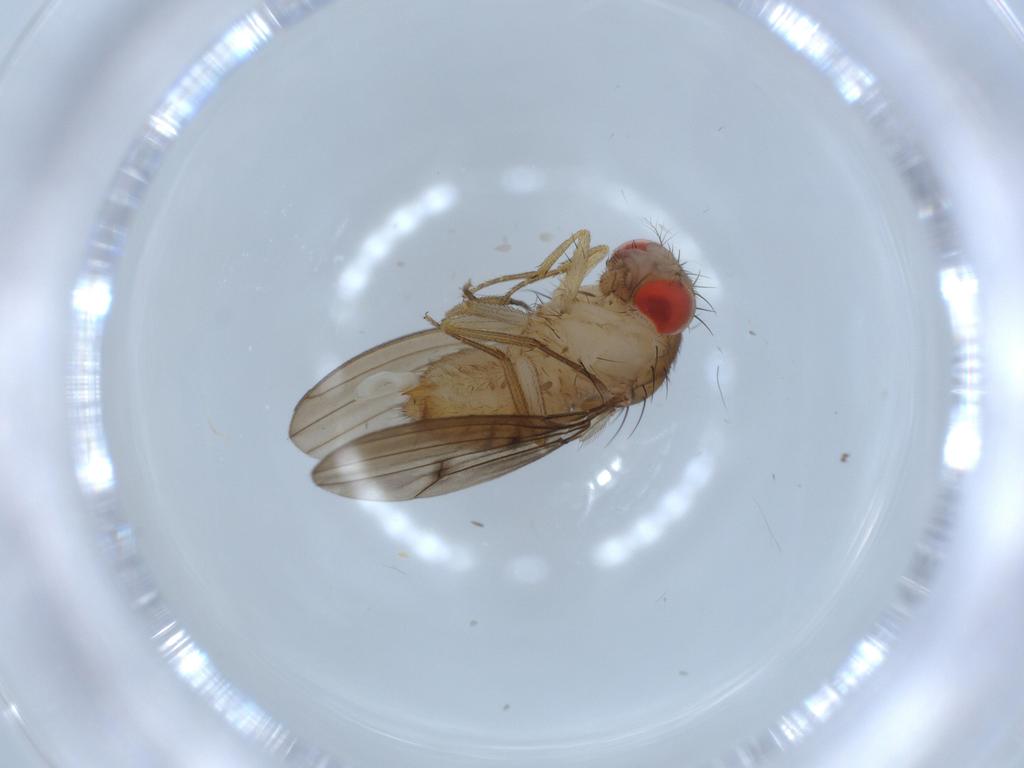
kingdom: Animalia
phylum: Arthropoda
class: Insecta
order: Diptera
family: Drosophilidae
